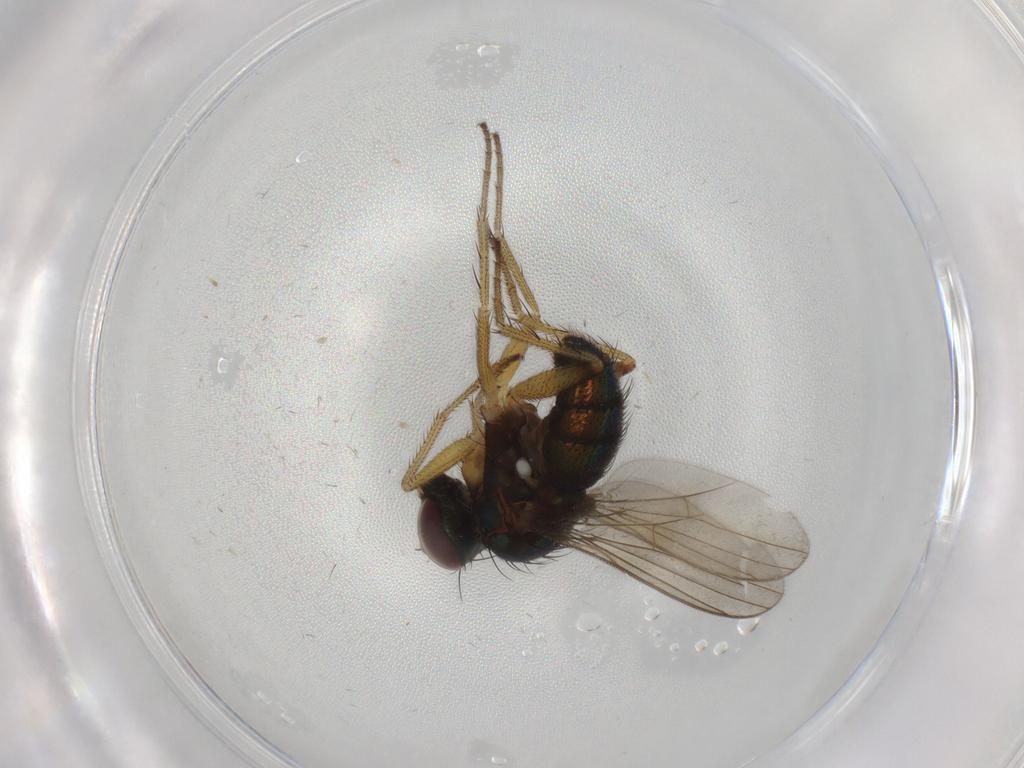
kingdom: Animalia
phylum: Arthropoda
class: Insecta
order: Diptera
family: Dolichopodidae
